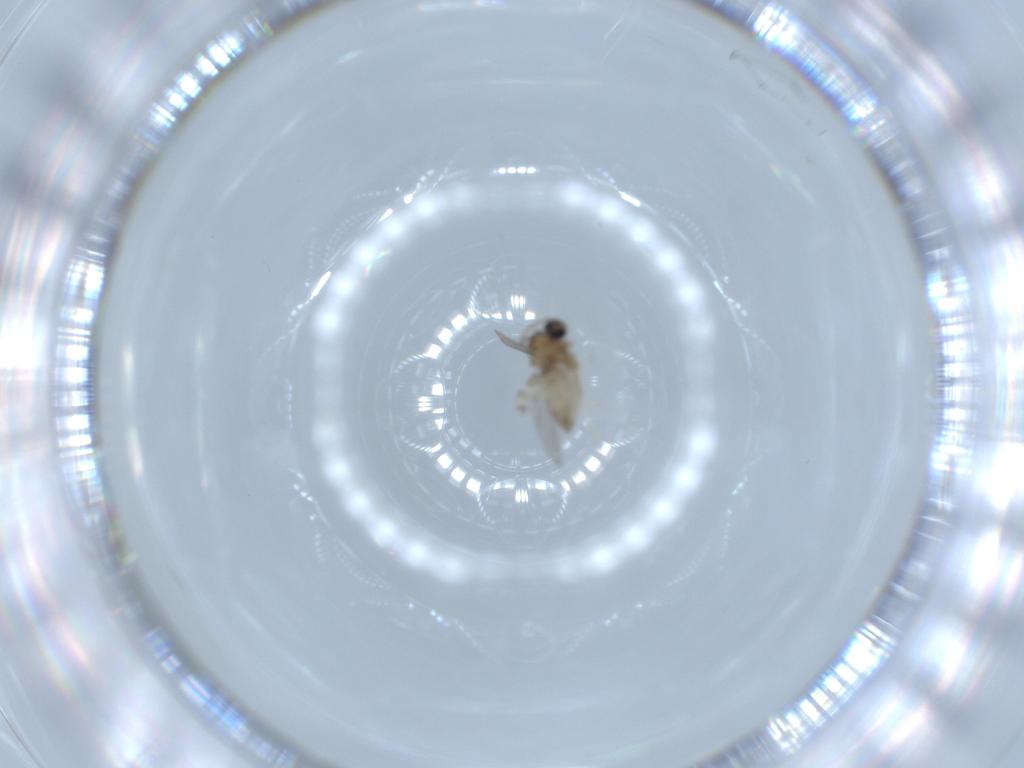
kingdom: Animalia
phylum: Arthropoda
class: Insecta
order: Diptera
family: Cecidomyiidae
